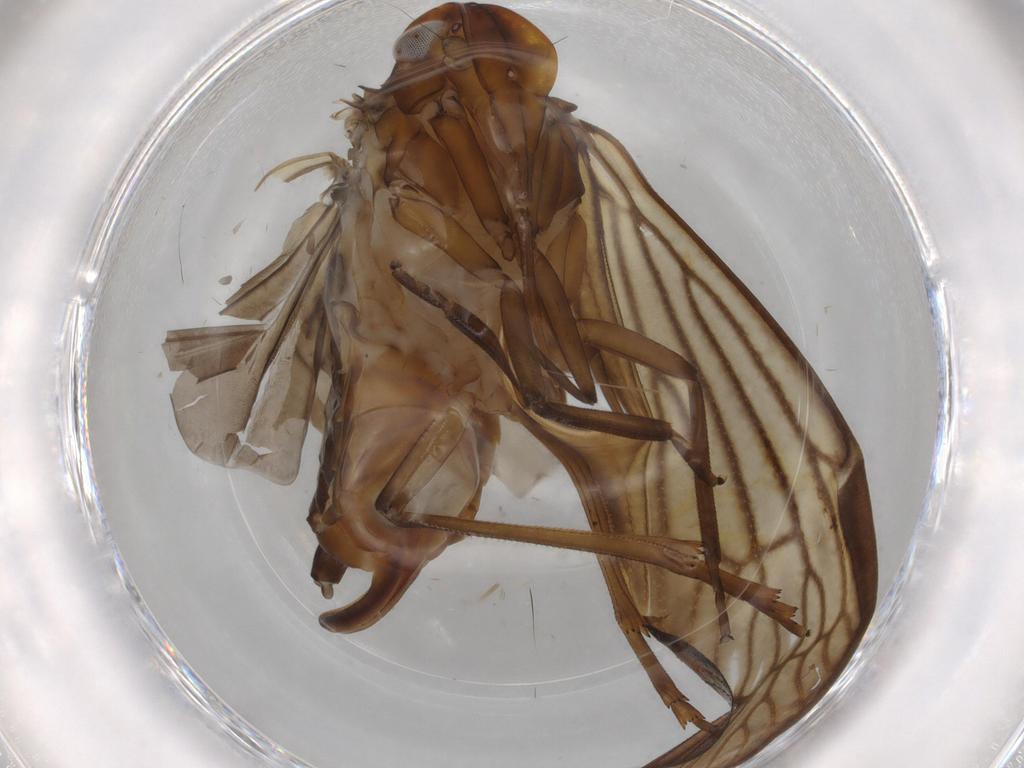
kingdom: Animalia
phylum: Arthropoda
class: Insecta
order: Hemiptera
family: Cixiidae
